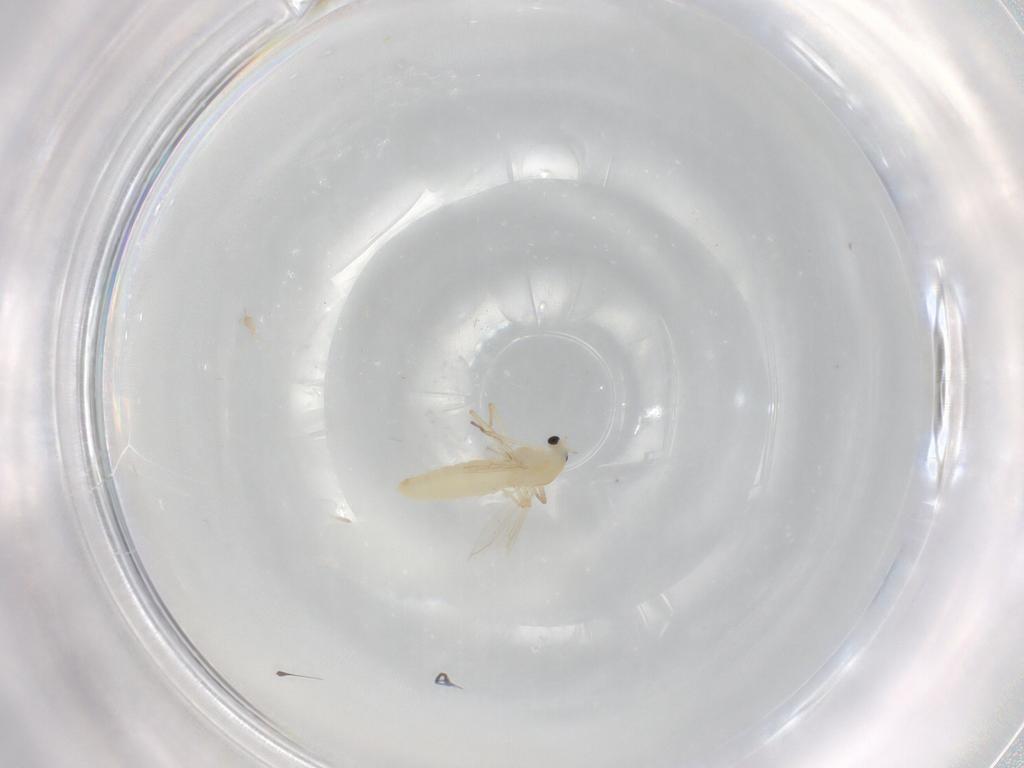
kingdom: Animalia
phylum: Arthropoda
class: Insecta
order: Diptera
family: Chironomidae
